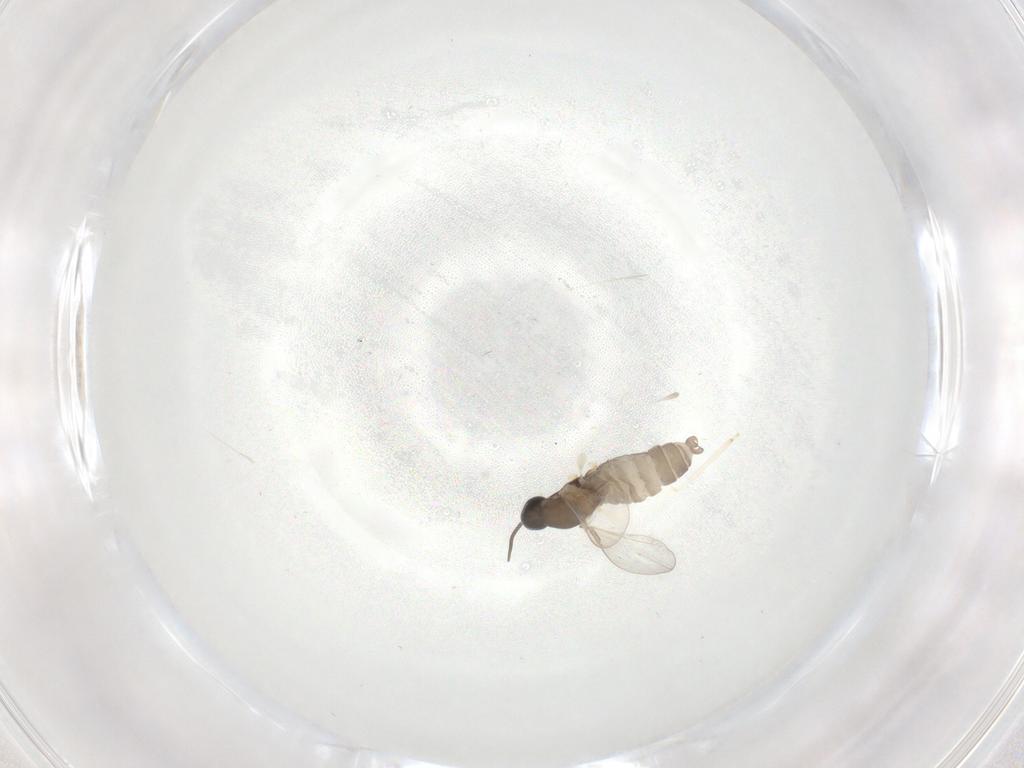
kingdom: Animalia
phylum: Arthropoda
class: Insecta
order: Diptera
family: Cecidomyiidae
